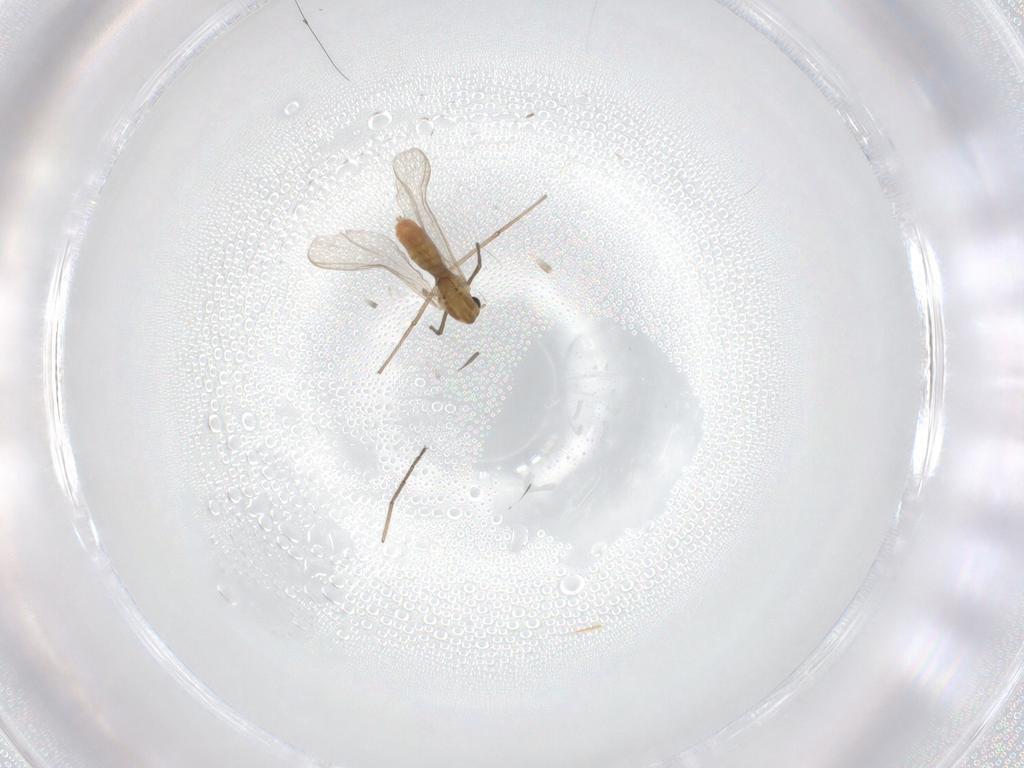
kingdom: Animalia
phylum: Arthropoda
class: Insecta
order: Diptera
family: Chironomidae
